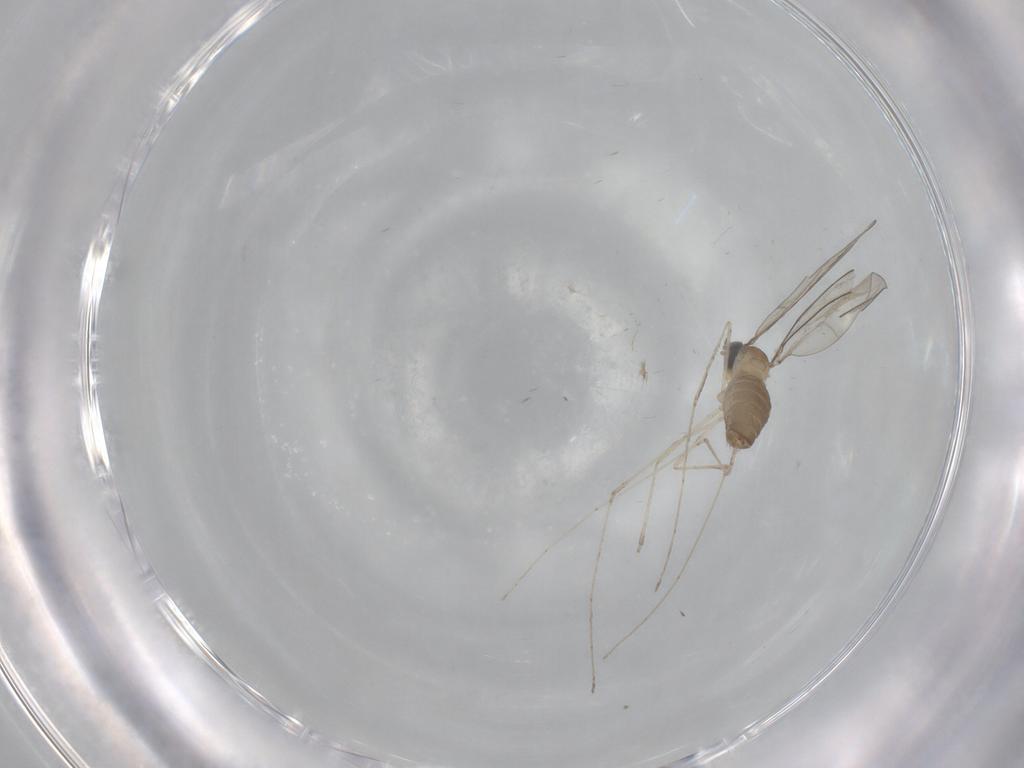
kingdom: Animalia
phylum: Arthropoda
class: Insecta
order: Diptera
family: Cecidomyiidae
